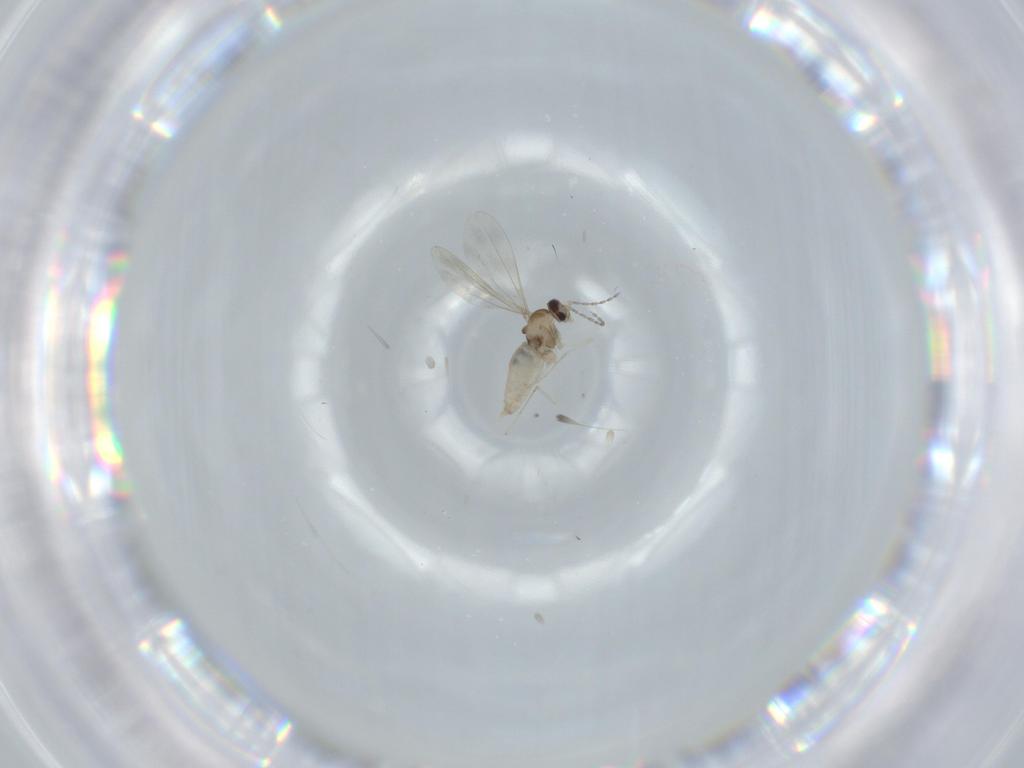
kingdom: Animalia
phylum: Arthropoda
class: Insecta
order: Diptera
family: Cecidomyiidae
